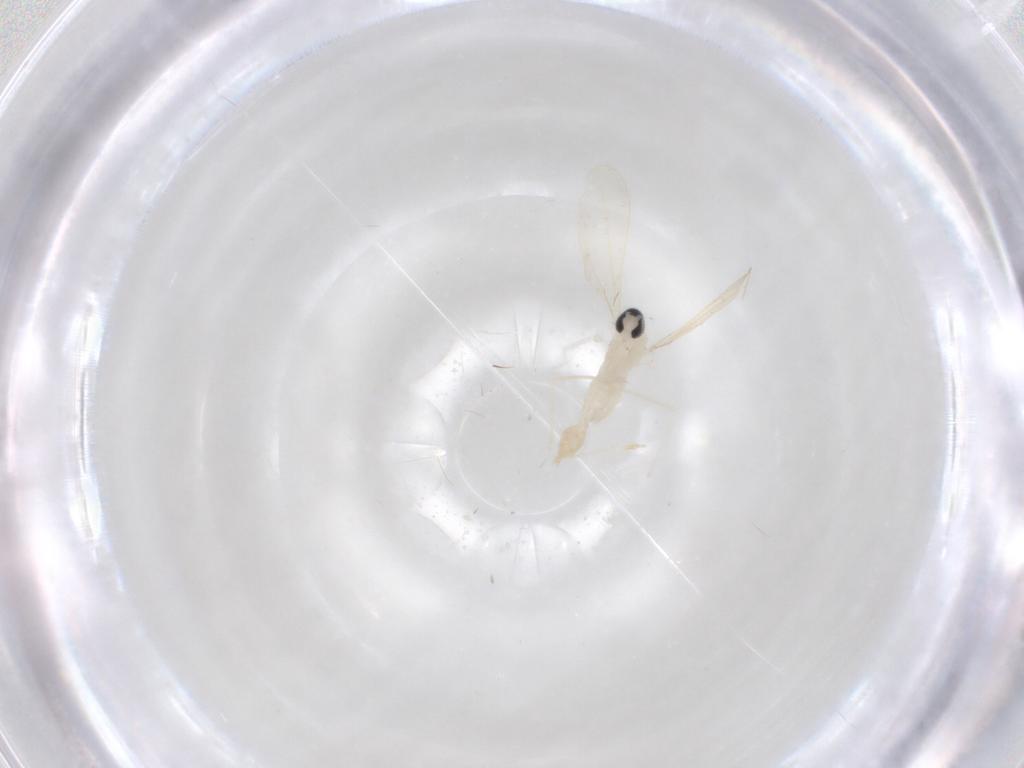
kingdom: Animalia
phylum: Arthropoda
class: Insecta
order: Diptera
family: Cecidomyiidae
